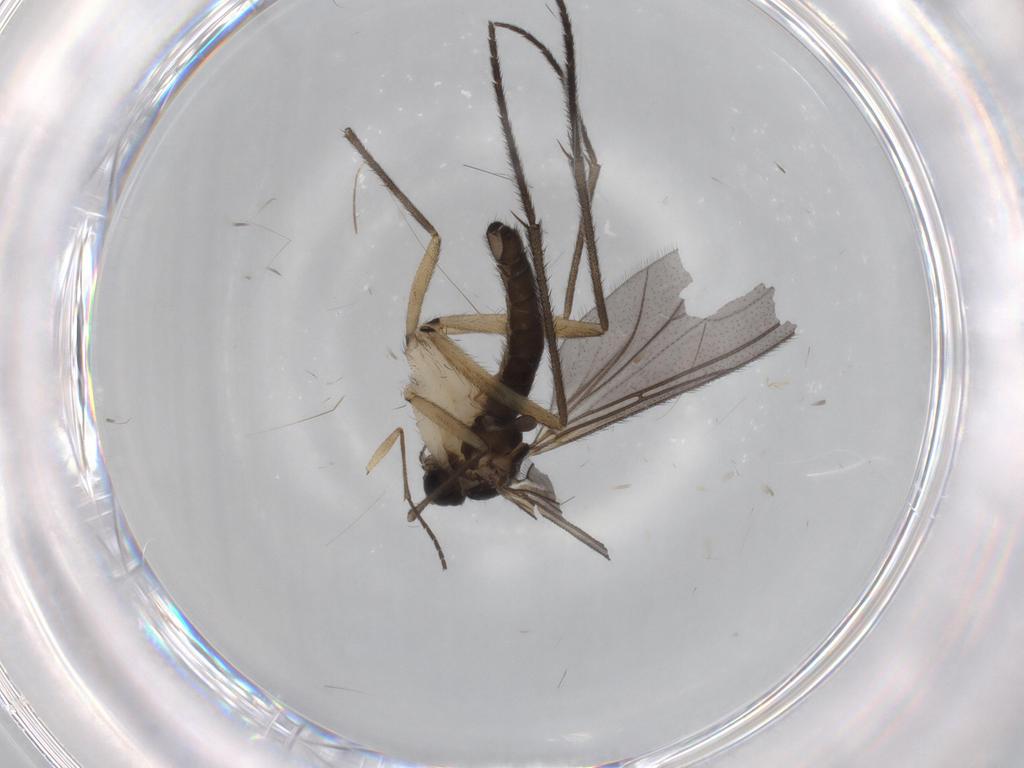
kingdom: Animalia
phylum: Arthropoda
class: Insecta
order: Diptera
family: Sciaridae
